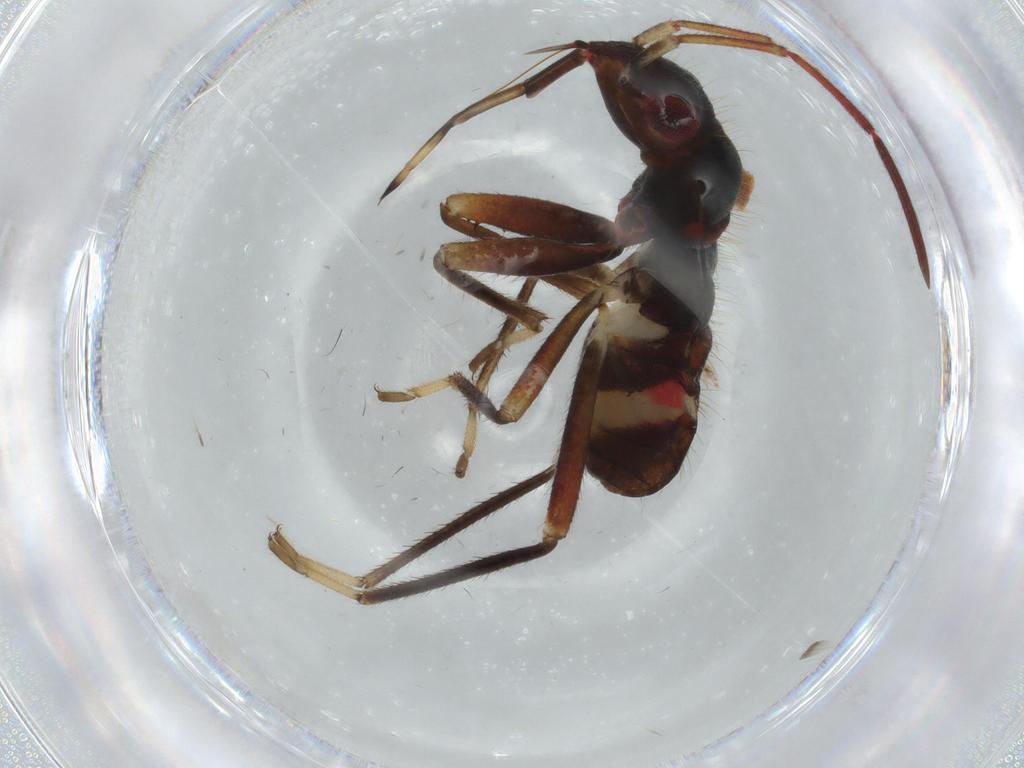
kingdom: Animalia
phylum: Arthropoda
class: Insecta
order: Hemiptera
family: Rhyparochromidae
